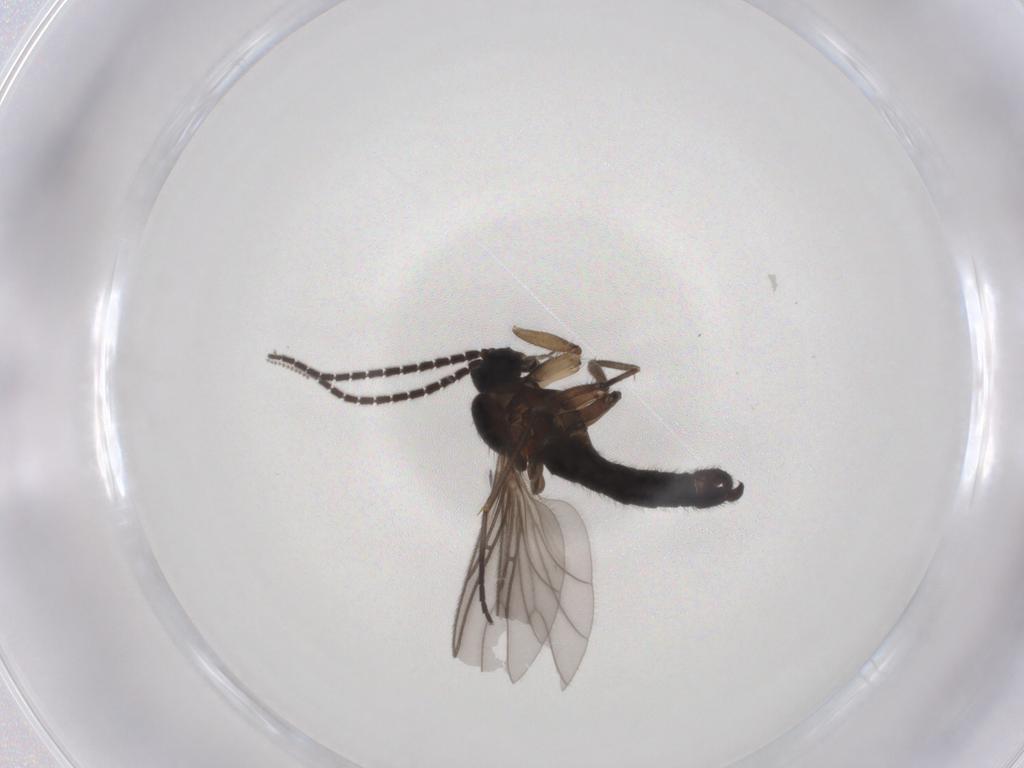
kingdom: Animalia
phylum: Arthropoda
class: Insecta
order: Diptera
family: Sciaridae
